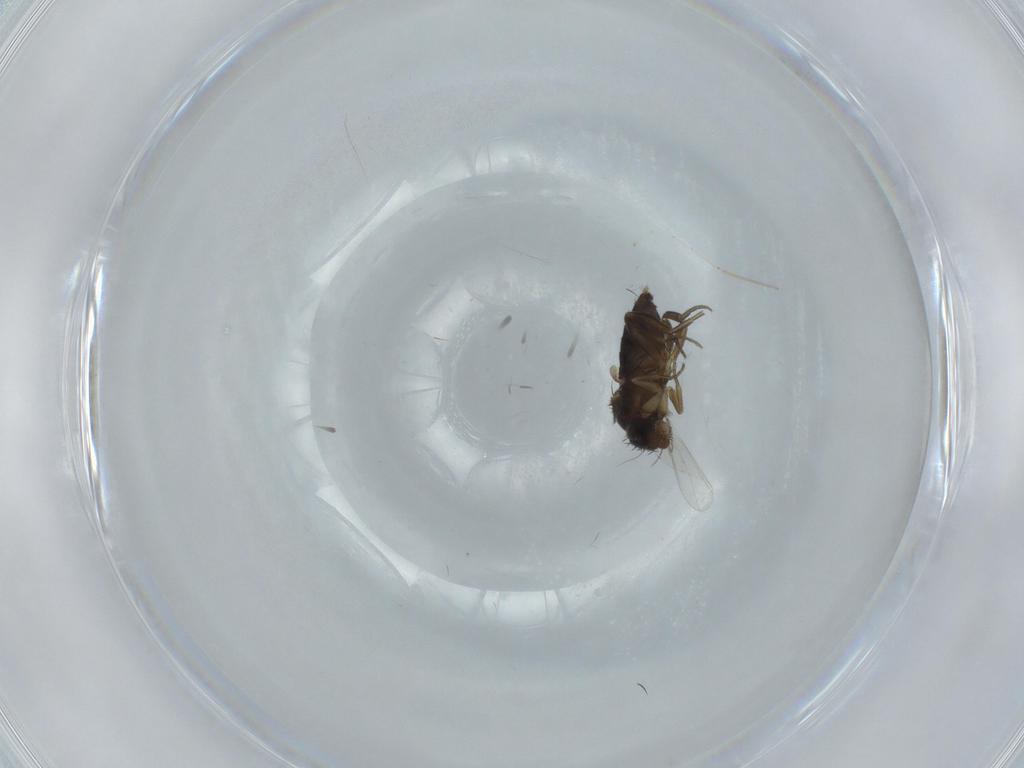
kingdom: Animalia
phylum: Arthropoda
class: Insecta
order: Diptera
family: Phoridae
